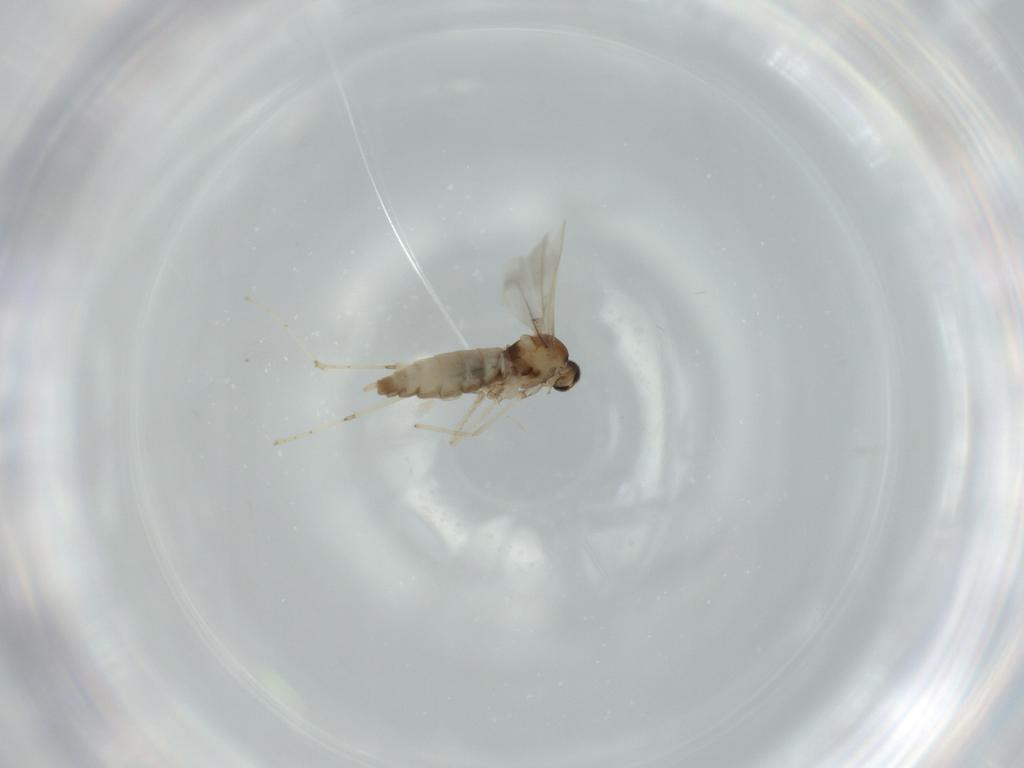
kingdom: Animalia
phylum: Arthropoda
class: Insecta
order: Diptera
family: Cecidomyiidae
